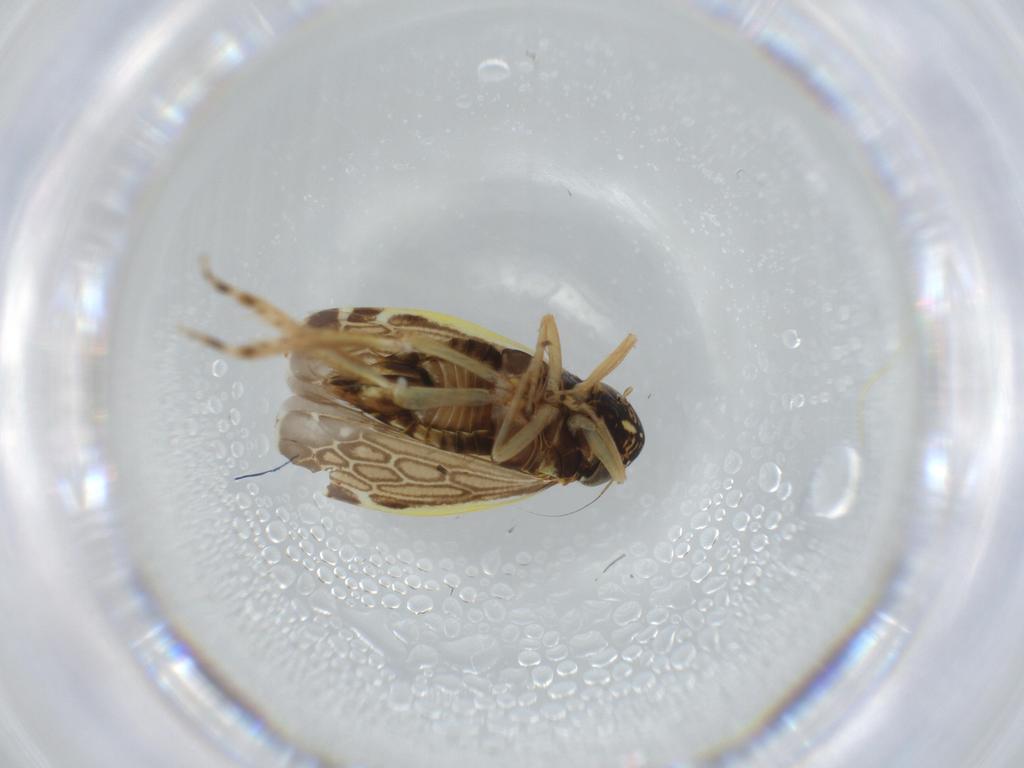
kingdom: Animalia
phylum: Arthropoda
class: Insecta
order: Hemiptera
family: Cicadellidae
